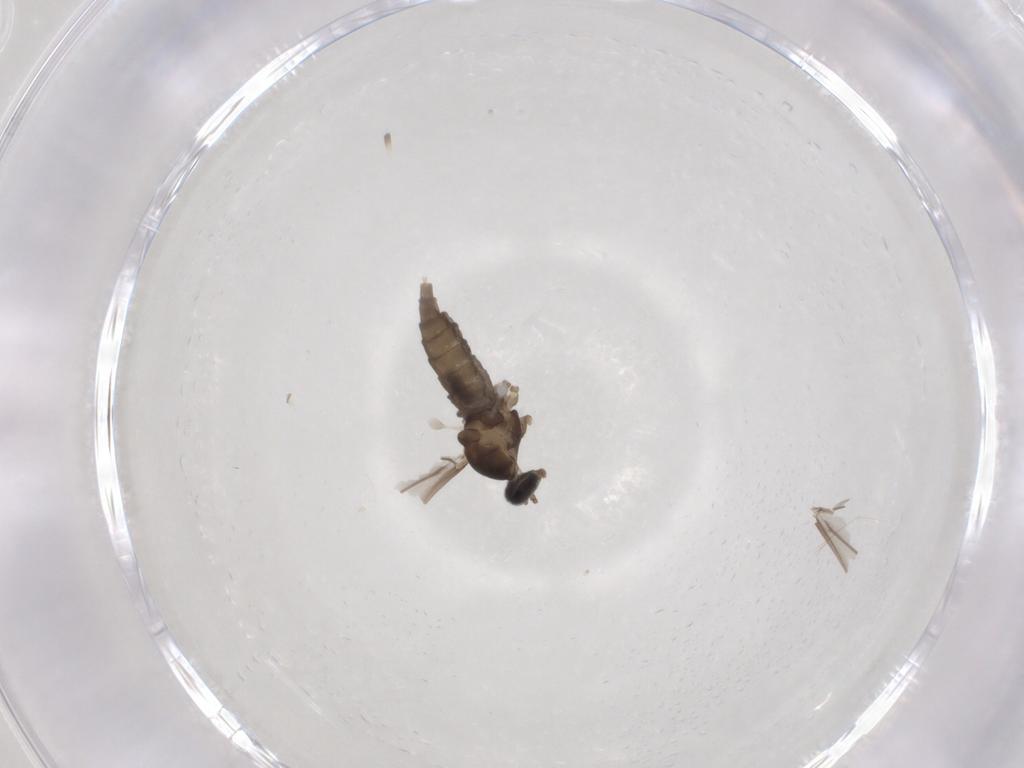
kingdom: Animalia
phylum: Arthropoda
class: Insecta
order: Diptera
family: Cecidomyiidae
